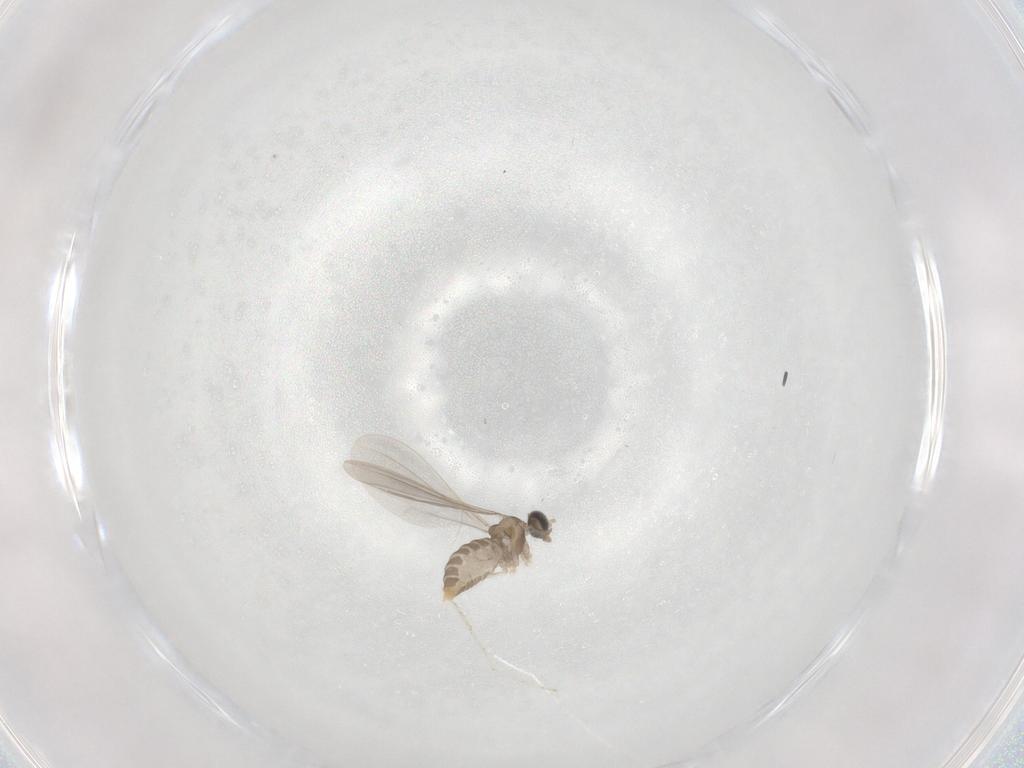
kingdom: Animalia
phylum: Arthropoda
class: Insecta
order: Diptera
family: Cecidomyiidae
